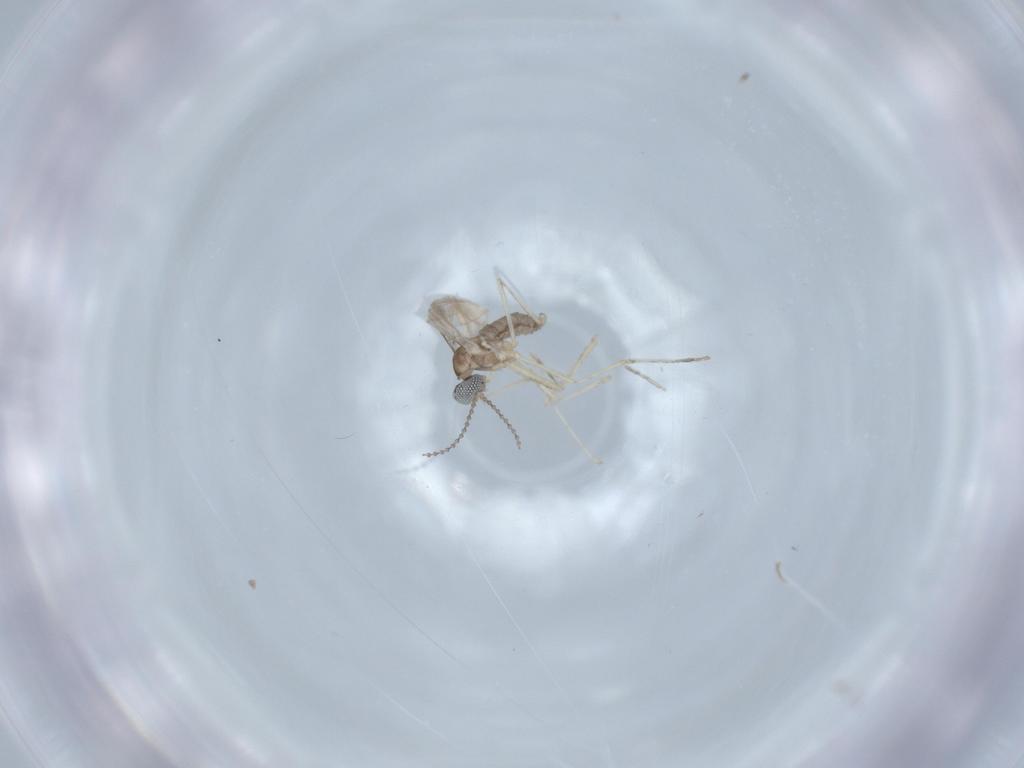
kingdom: Animalia
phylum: Arthropoda
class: Insecta
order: Diptera
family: Cecidomyiidae
